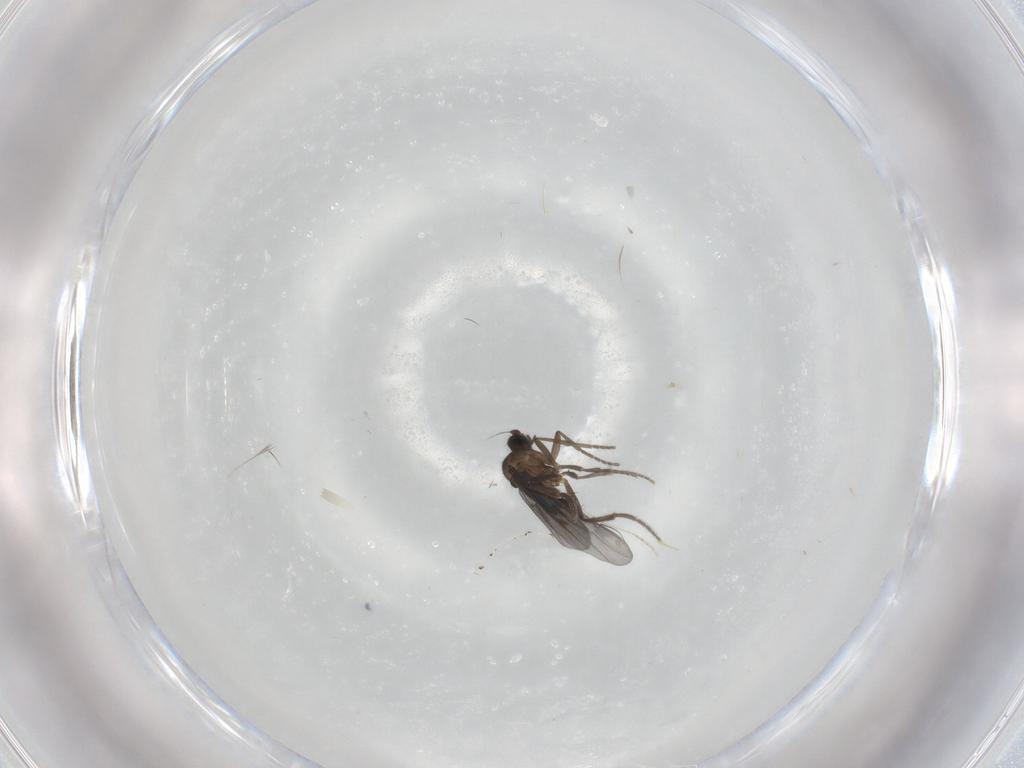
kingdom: Animalia
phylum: Arthropoda
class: Insecta
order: Diptera
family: Phoridae
